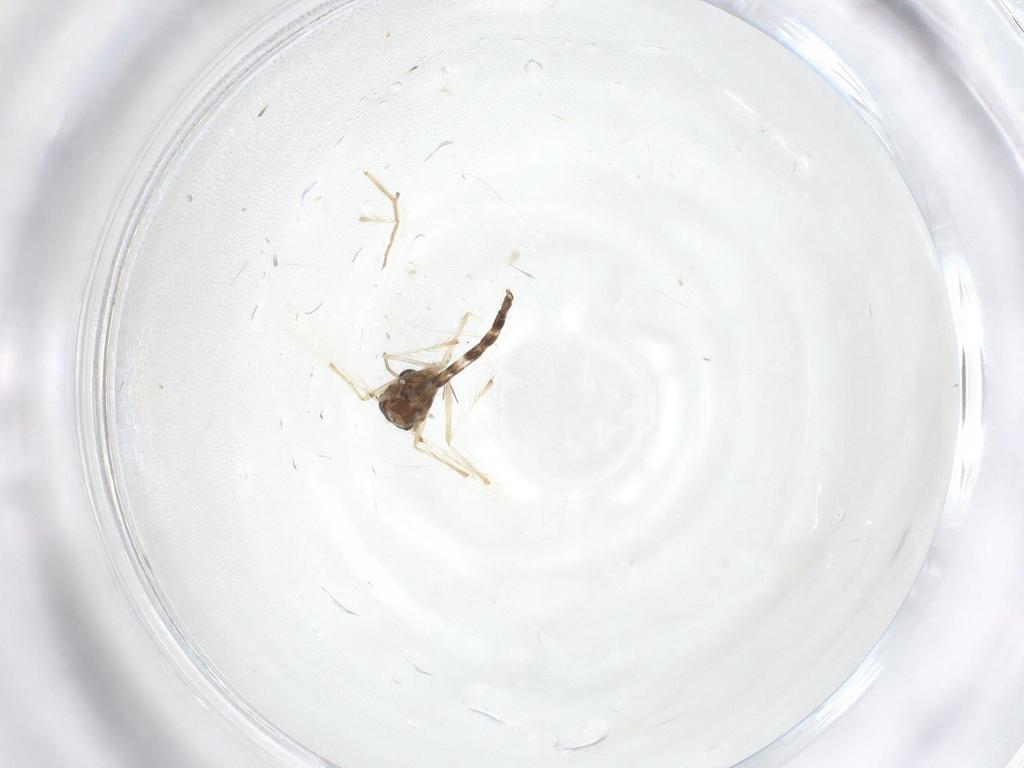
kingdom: Animalia
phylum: Arthropoda
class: Insecta
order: Diptera
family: Chironomidae
